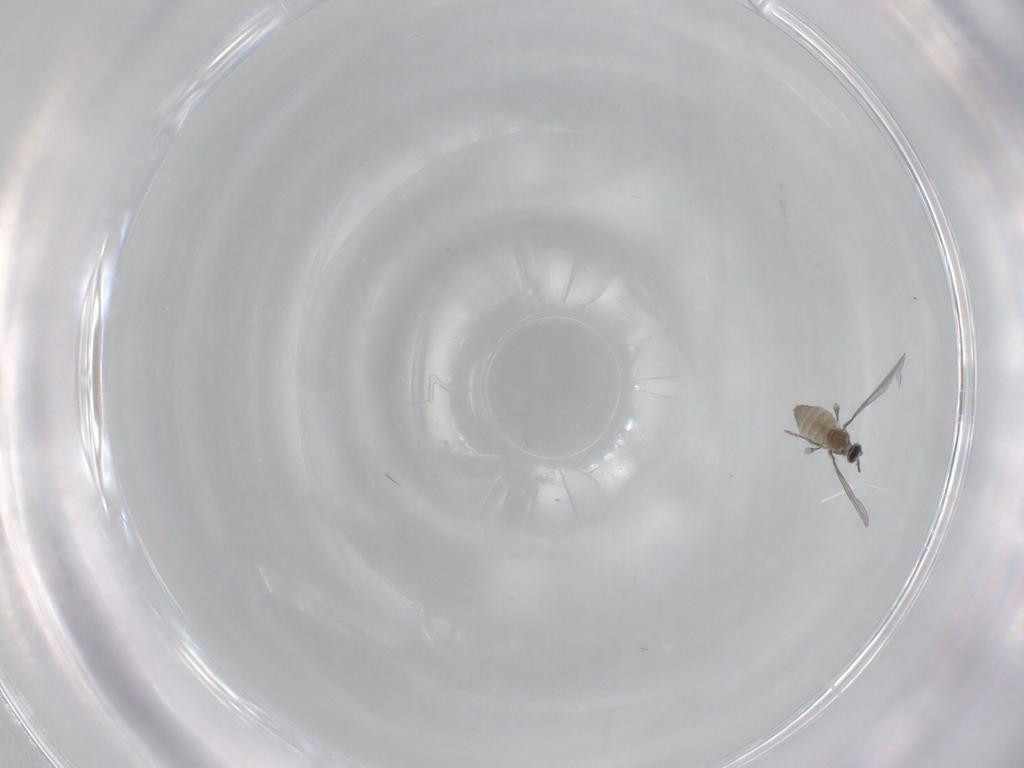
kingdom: Animalia
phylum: Arthropoda
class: Insecta
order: Diptera
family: Cecidomyiidae
